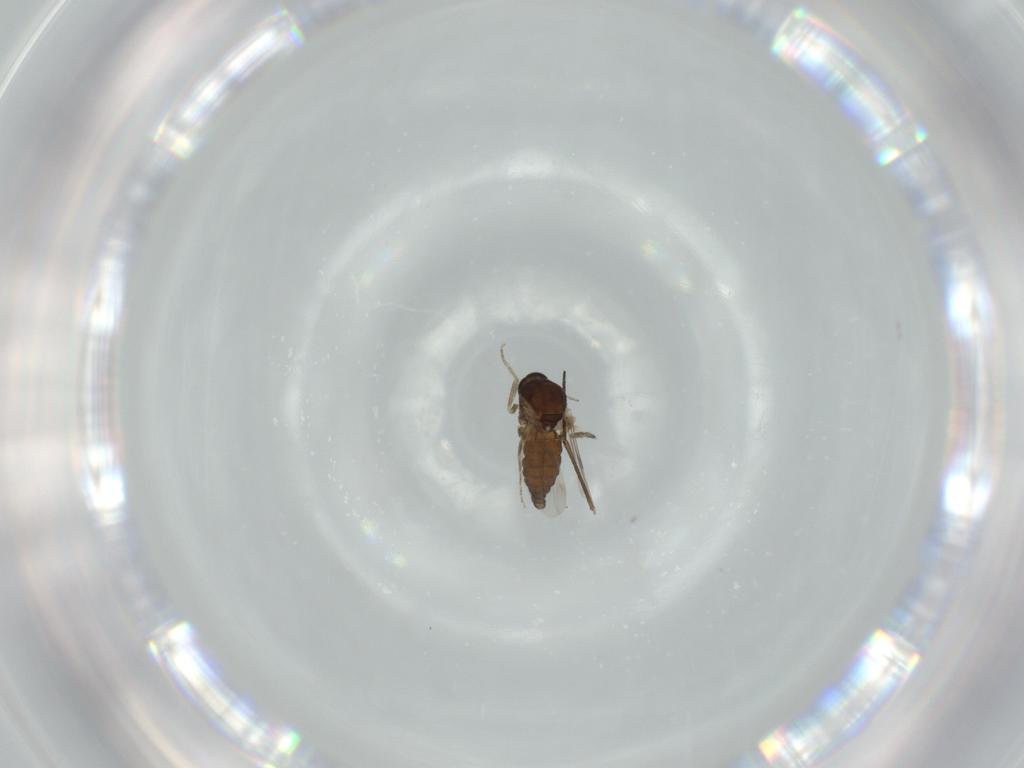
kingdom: Animalia
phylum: Arthropoda
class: Insecta
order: Diptera
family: Ceratopogonidae
